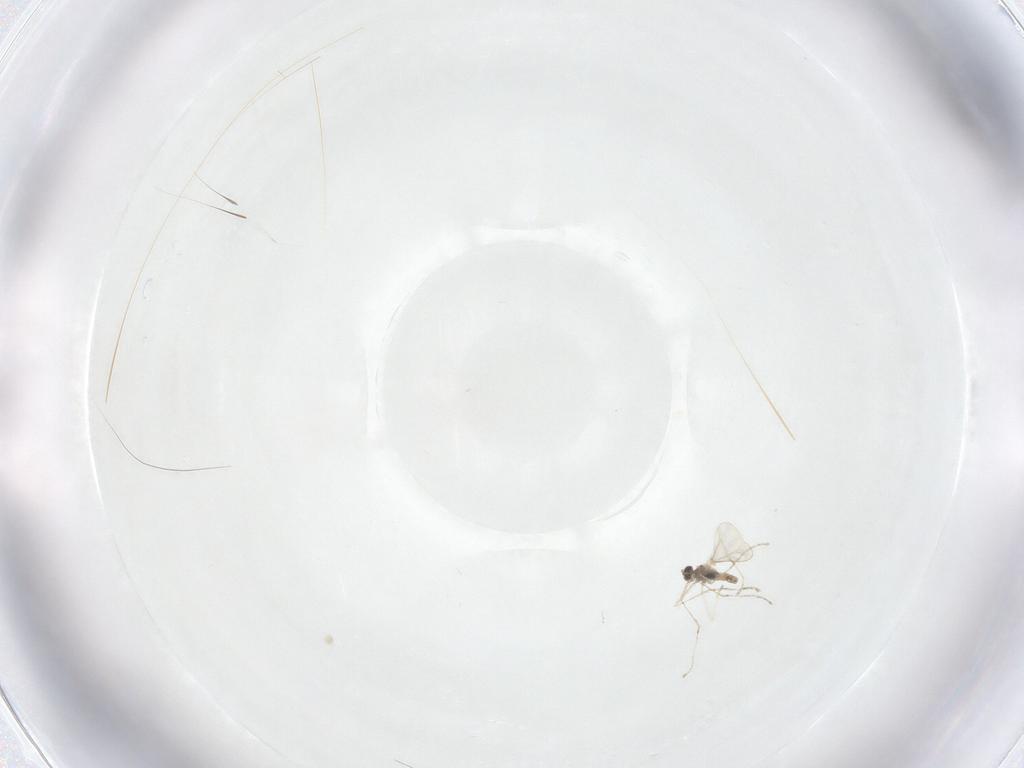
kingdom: Animalia
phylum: Arthropoda
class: Insecta
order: Diptera
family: Cecidomyiidae
